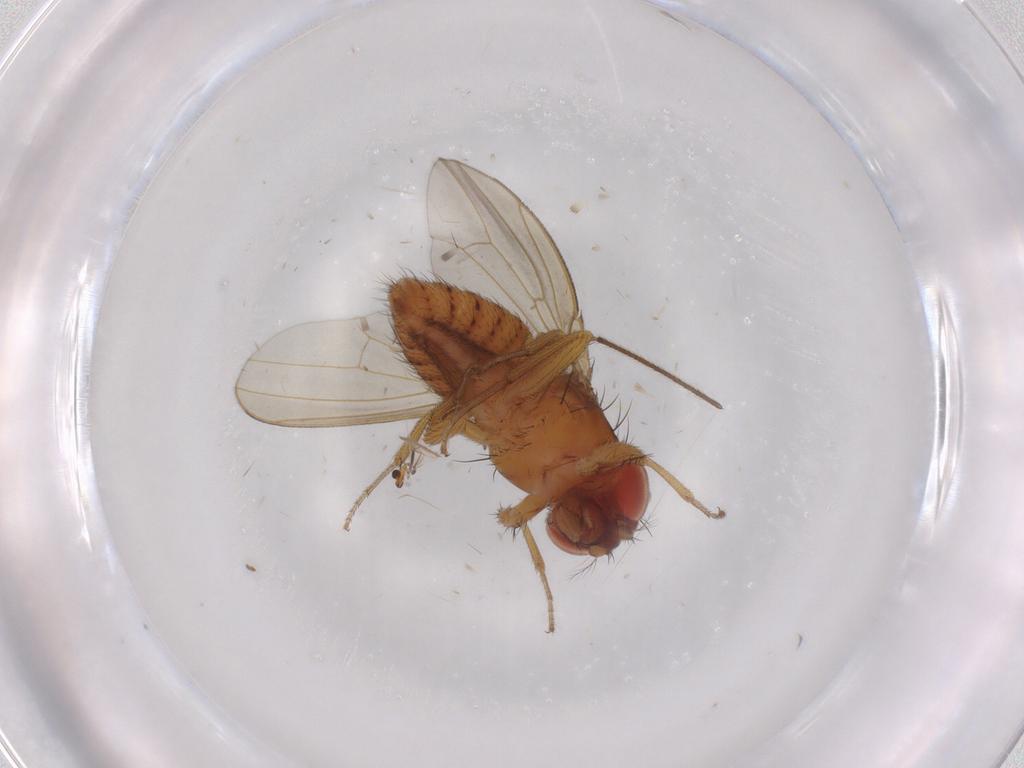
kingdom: Animalia
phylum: Arthropoda
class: Insecta
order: Diptera
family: Drosophilidae
